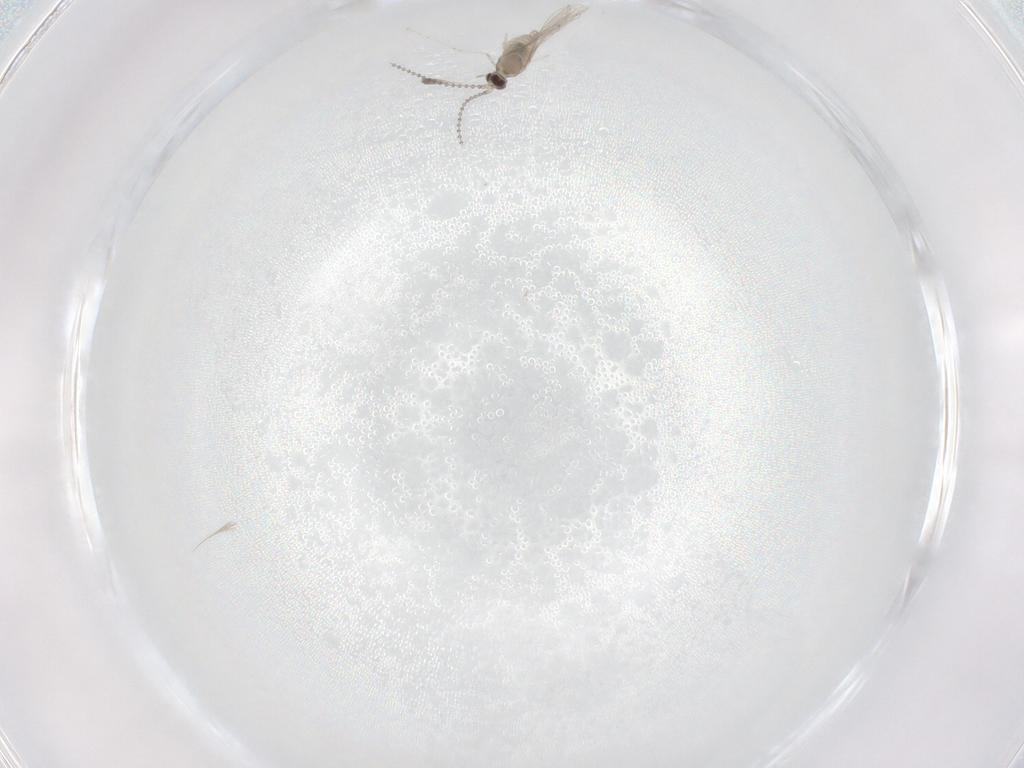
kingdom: Animalia
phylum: Arthropoda
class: Insecta
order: Diptera
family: Cecidomyiidae
